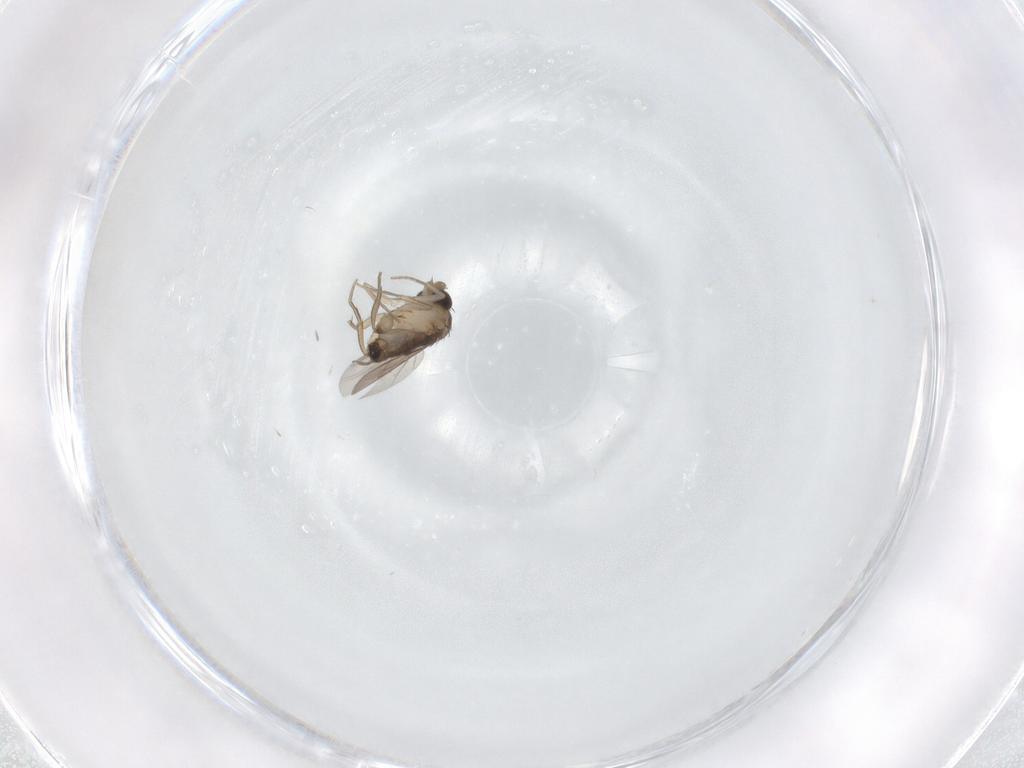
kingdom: Animalia
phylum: Arthropoda
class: Insecta
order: Diptera
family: Phoridae
